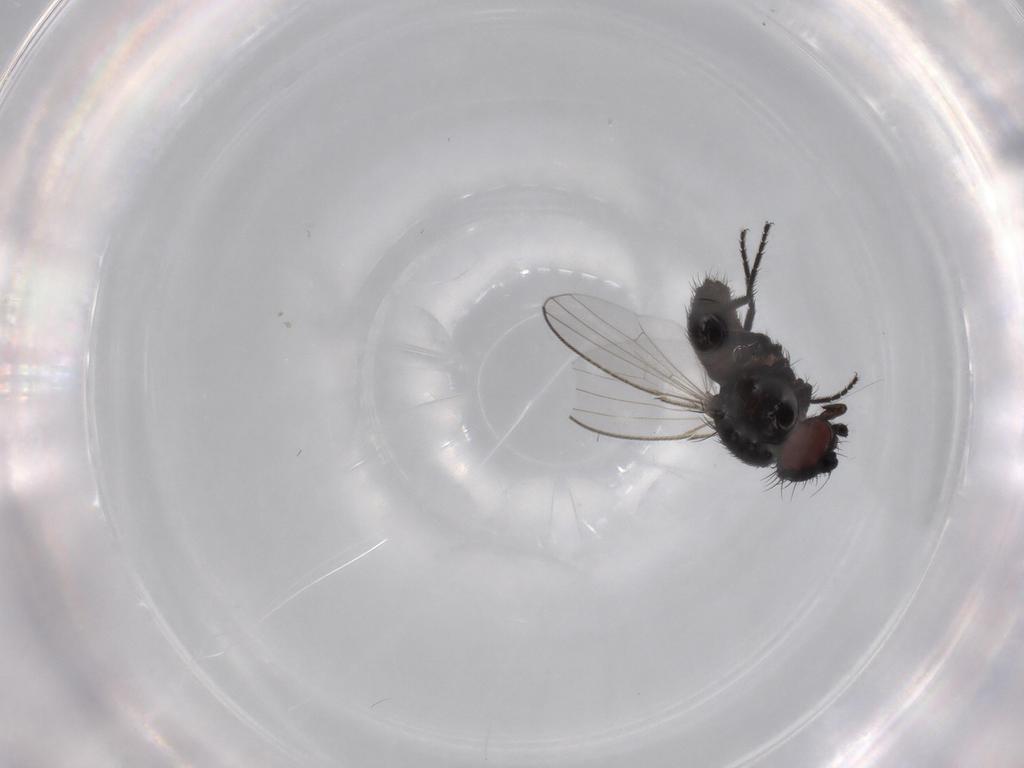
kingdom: Animalia
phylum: Arthropoda
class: Insecta
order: Diptera
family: Milichiidae
